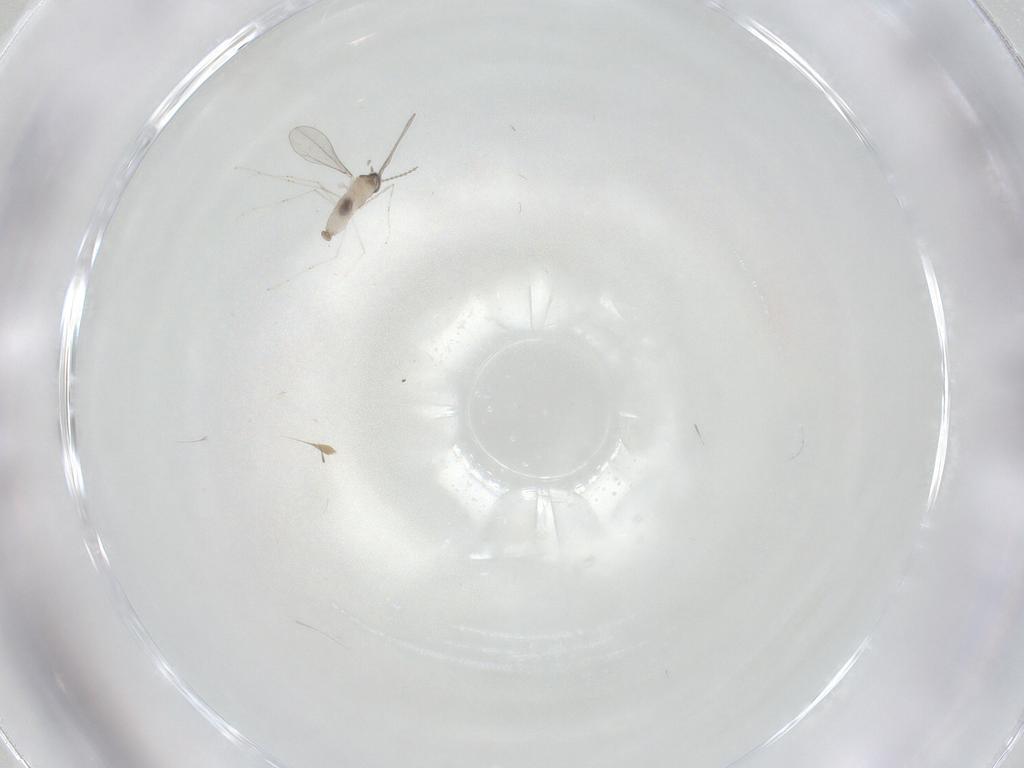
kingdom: Animalia
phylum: Arthropoda
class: Insecta
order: Diptera
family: Cecidomyiidae
